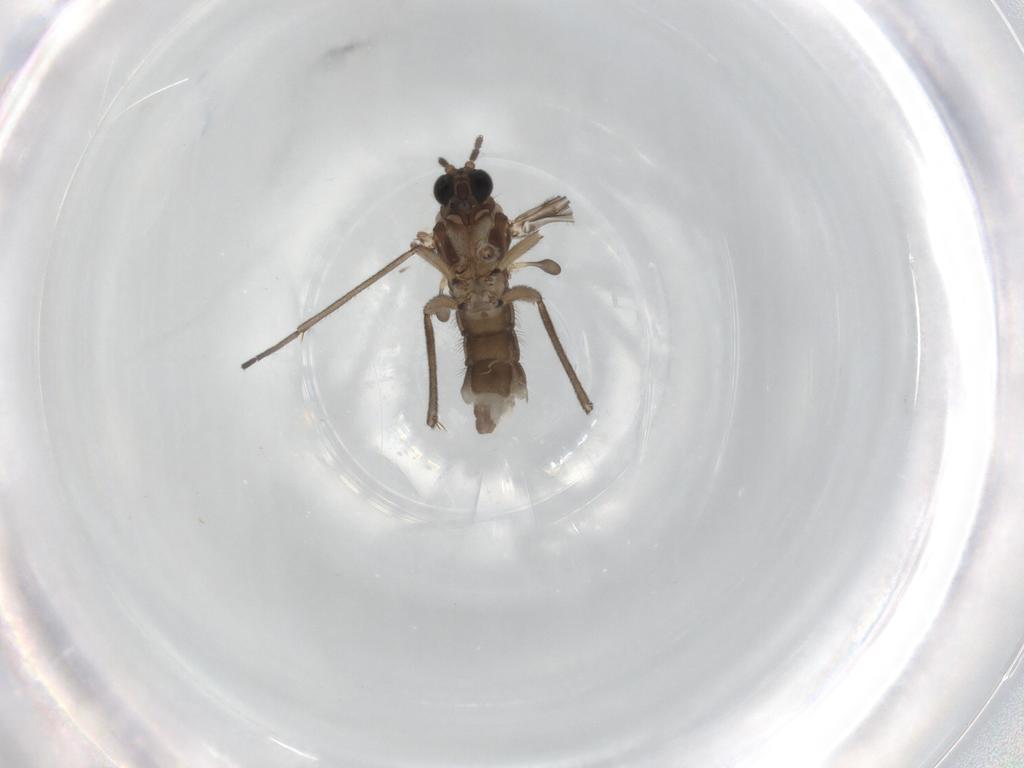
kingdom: Animalia
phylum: Arthropoda
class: Insecta
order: Diptera
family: Sciaridae
